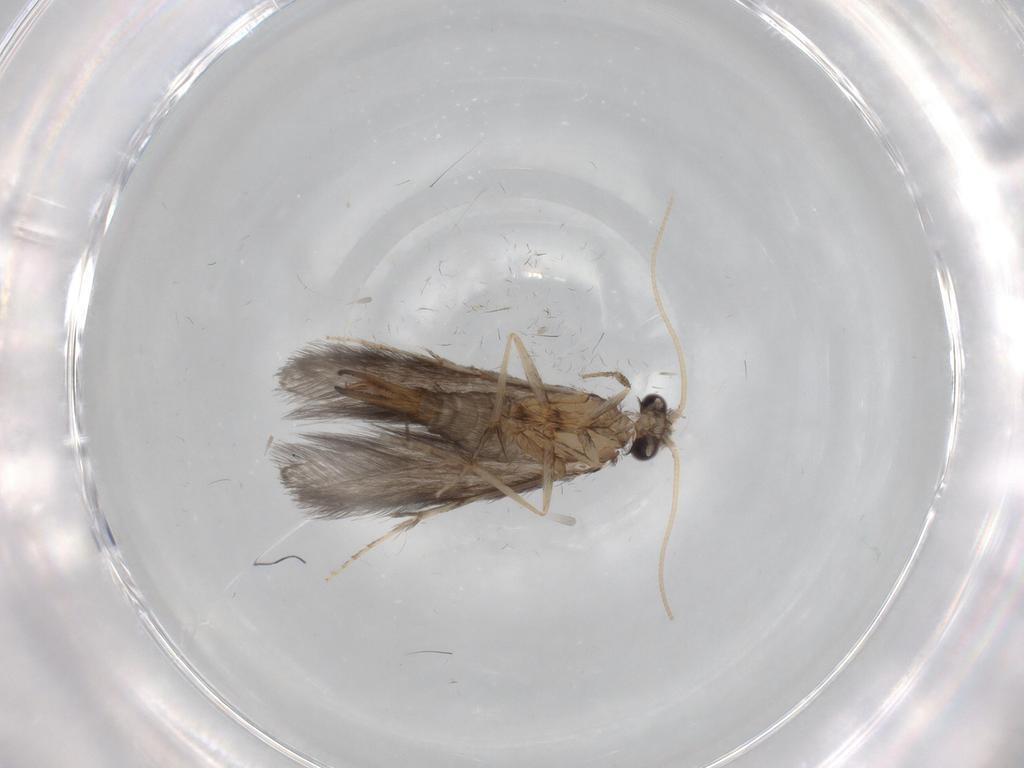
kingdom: Animalia
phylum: Arthropoda
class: Insecta
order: Trichoptera
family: Hydroptilidae
